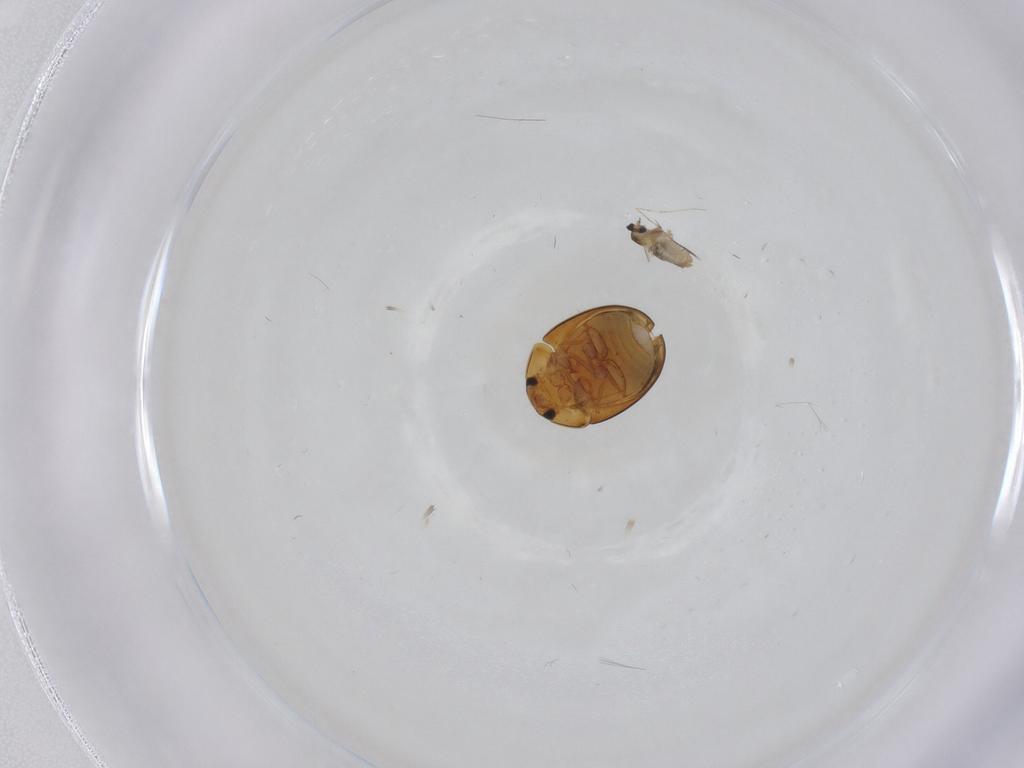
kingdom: Animalia
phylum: Arthropoda
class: Insecta
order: Coleoptera
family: Phalacridae
